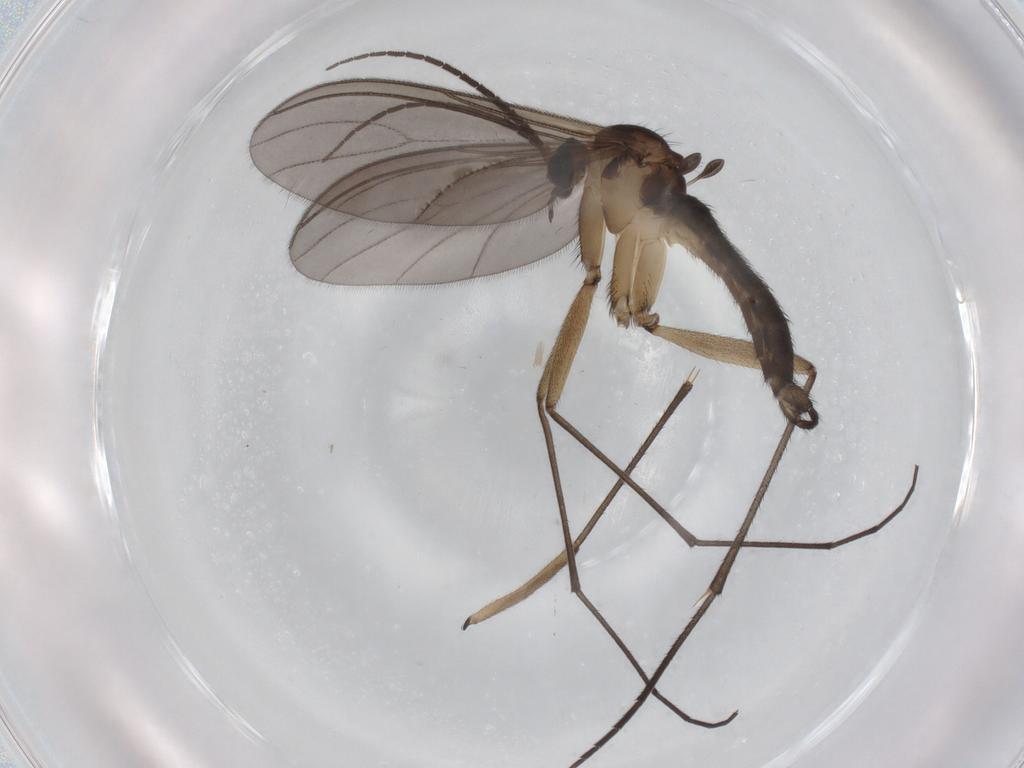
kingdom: Animalia
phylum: Arthropoda
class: Insecta
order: Diptera
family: Sciaridae
